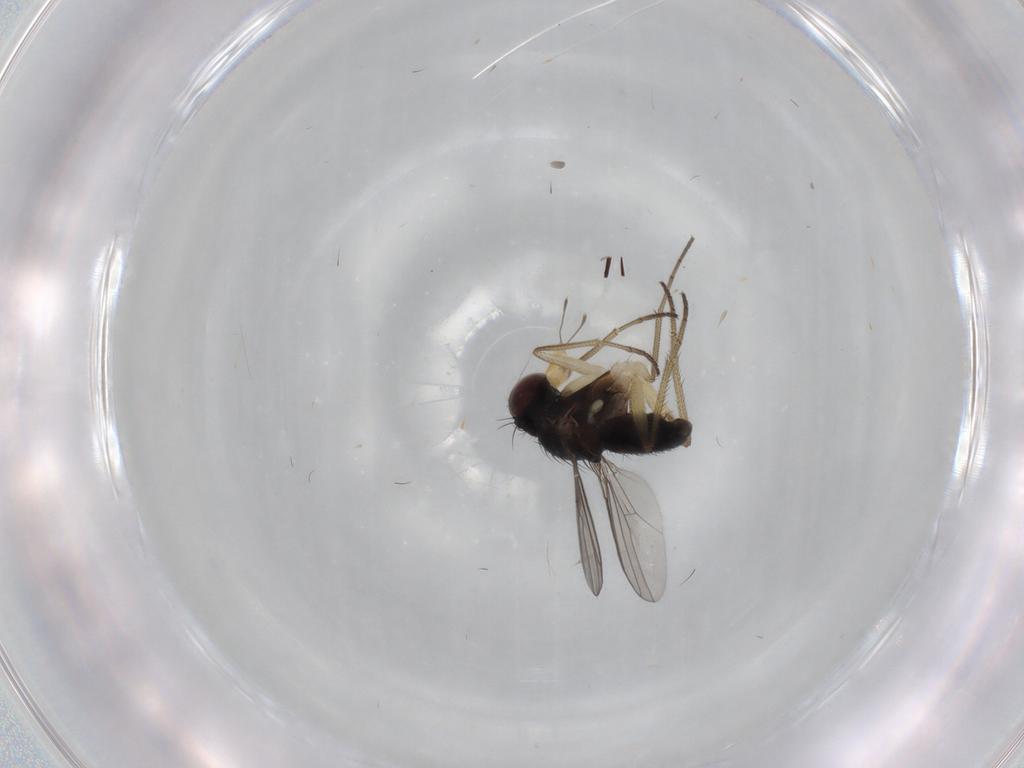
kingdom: Animalia
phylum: Arthropoda
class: Insecta
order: Diptera
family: Dolichopodidae
